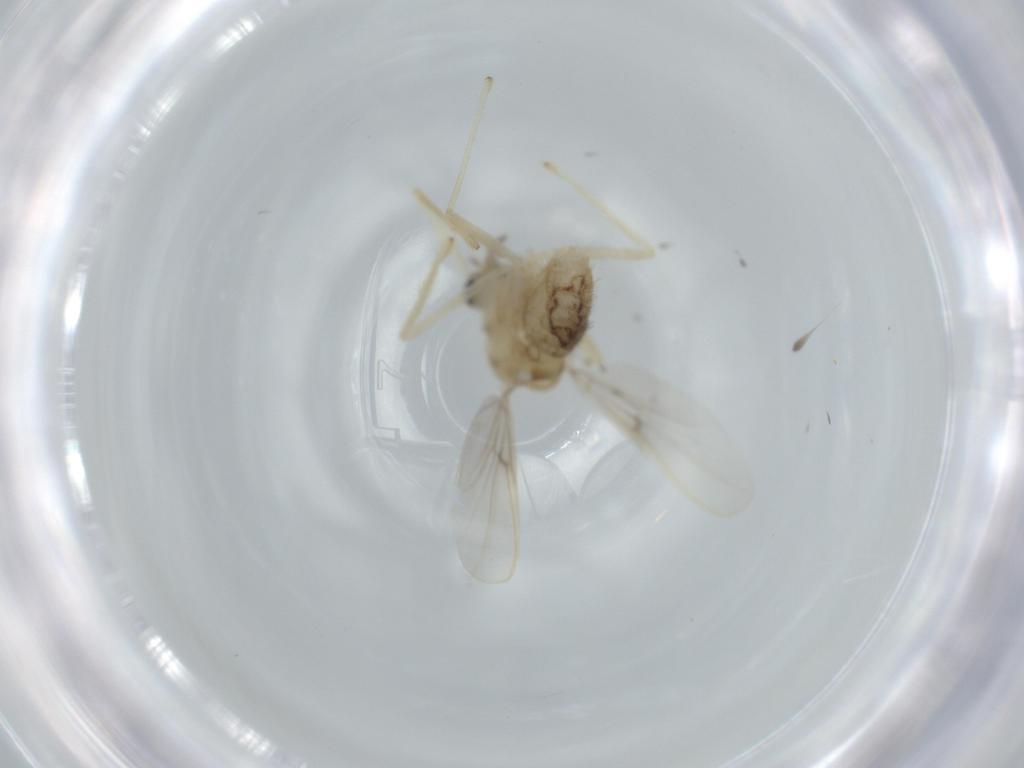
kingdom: Animalia
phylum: Arthropoda
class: Insecta
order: Diptera
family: Chironomidae
